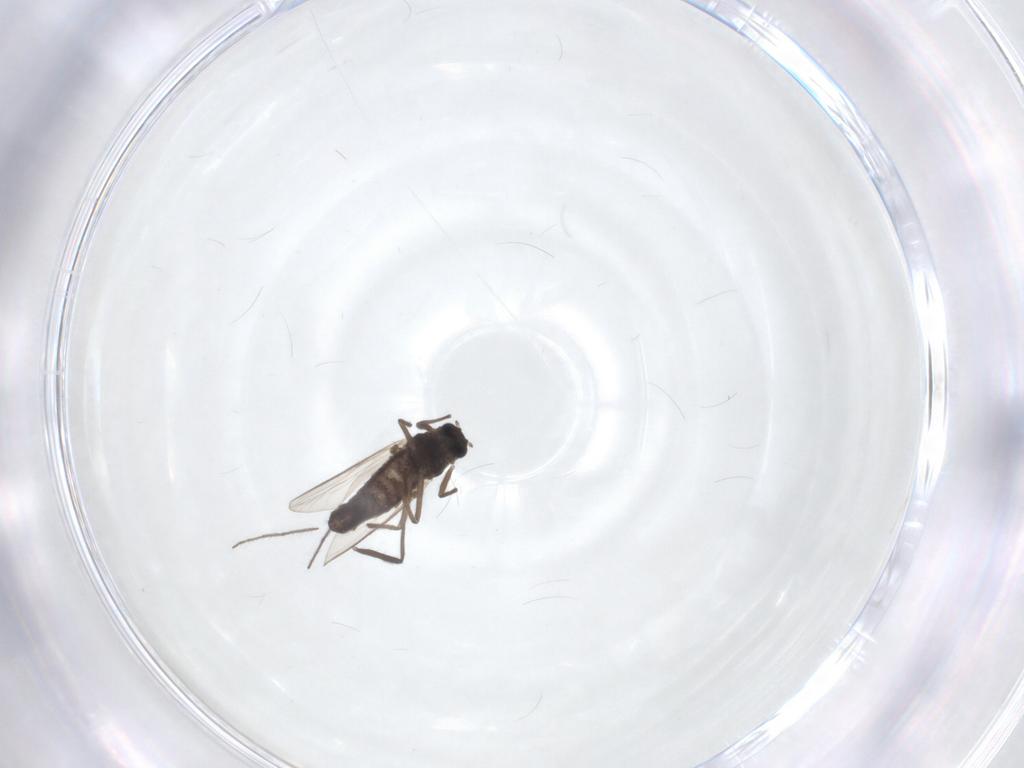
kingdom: Animalia
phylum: Arthropoda
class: Insecta
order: Diptera
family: Chironomidae
